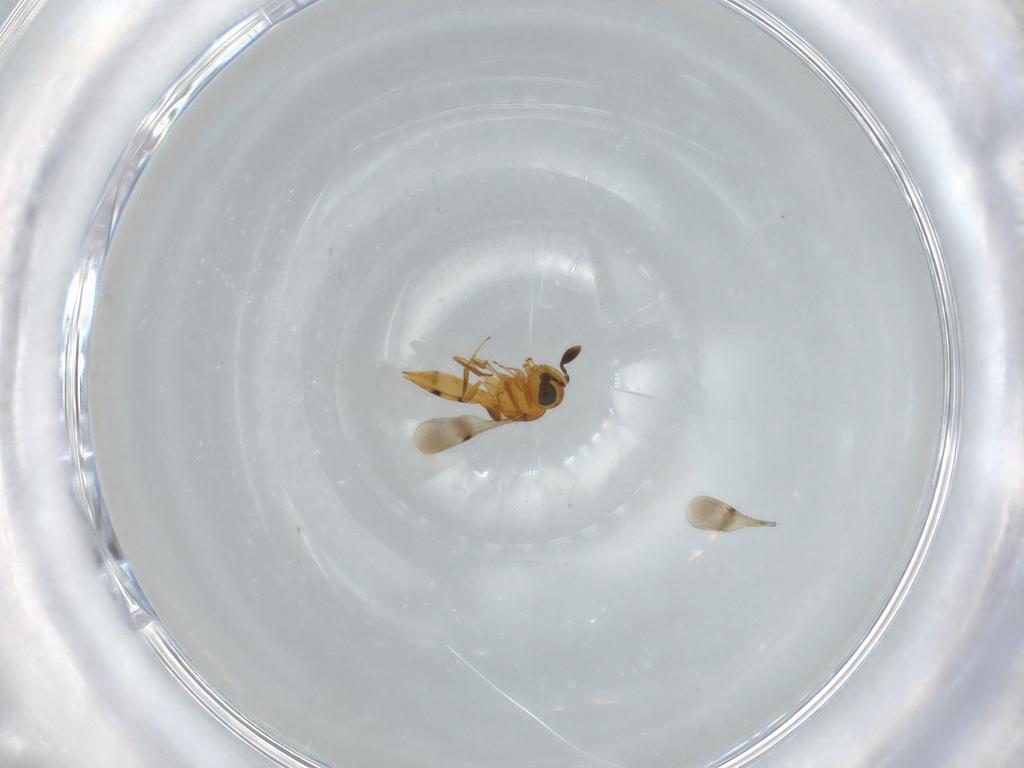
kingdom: Animalia
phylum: Arthropoda
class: Insecta
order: Hymenoptera
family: Scelionidae
